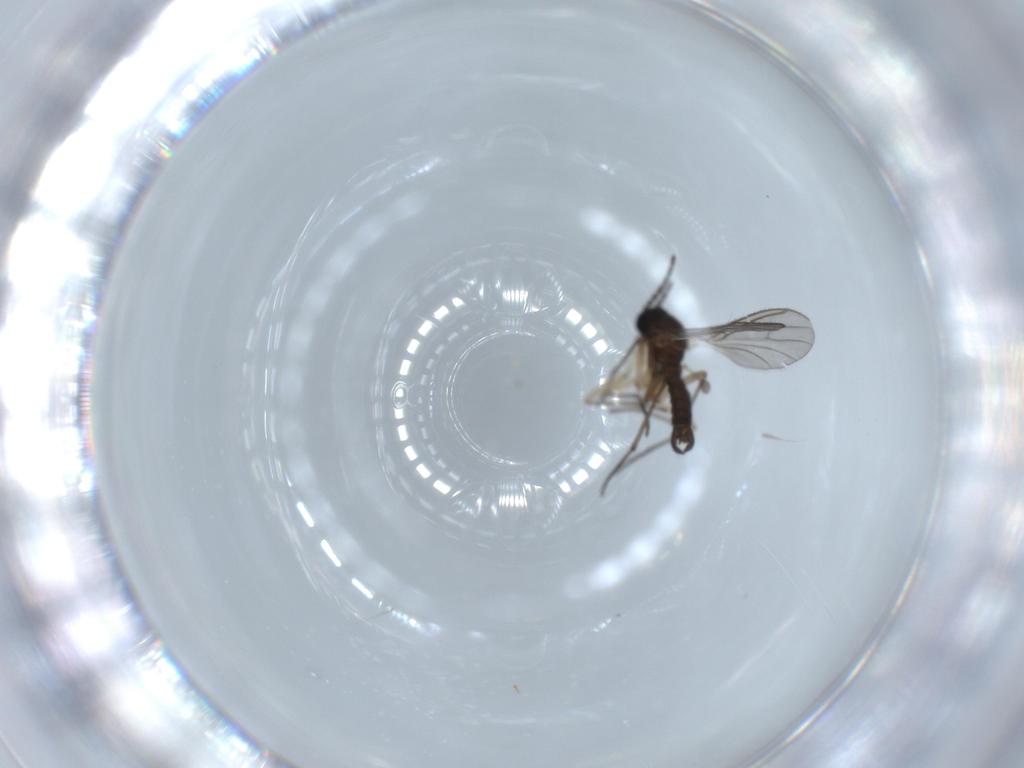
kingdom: Animalia
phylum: Arthropoda
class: Insecta
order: Diptera
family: Sciaridae
